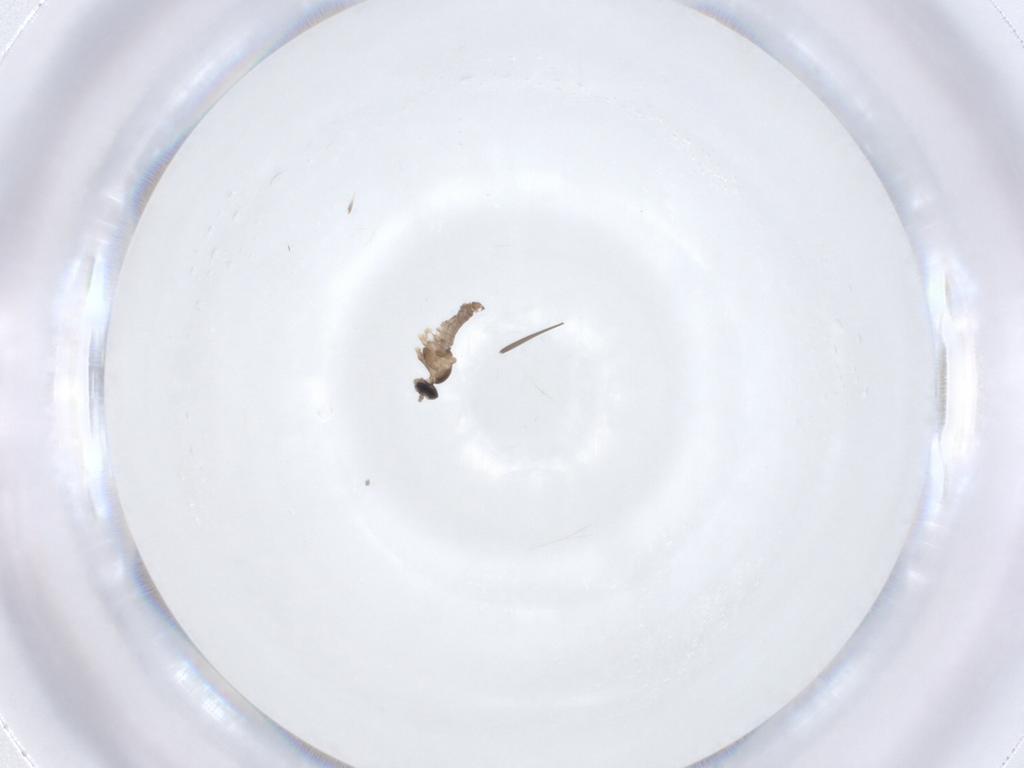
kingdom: Animalia
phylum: Arthropoda
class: Insecta
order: Diptera
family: Cecidomyiidae
